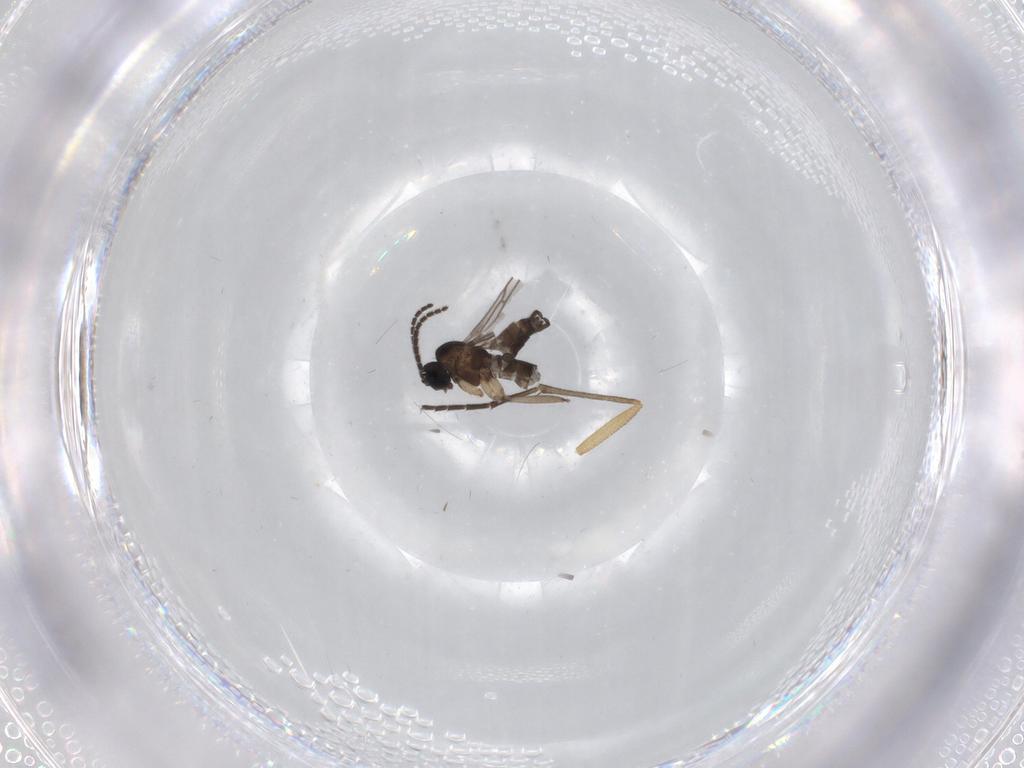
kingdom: Animalia
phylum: Arthropoda
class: Insecta
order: Diptera
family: Sciaridae
